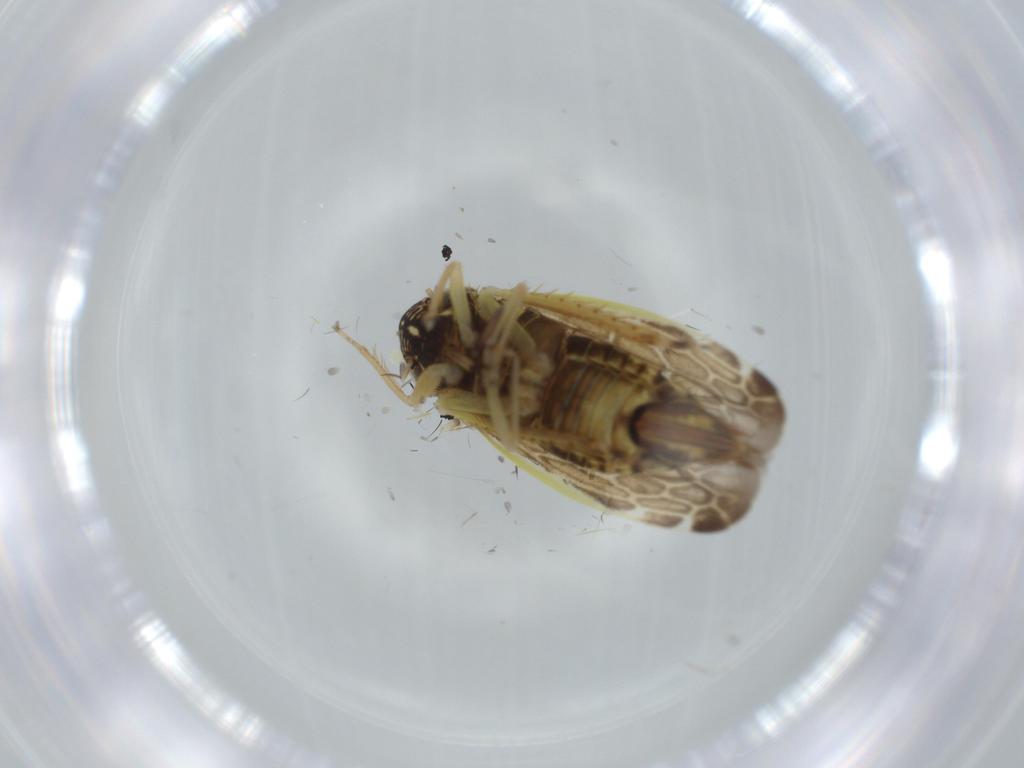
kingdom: Animalia
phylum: Arthropoda
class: Insecta
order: Hemiptera
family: Cicadellidae
